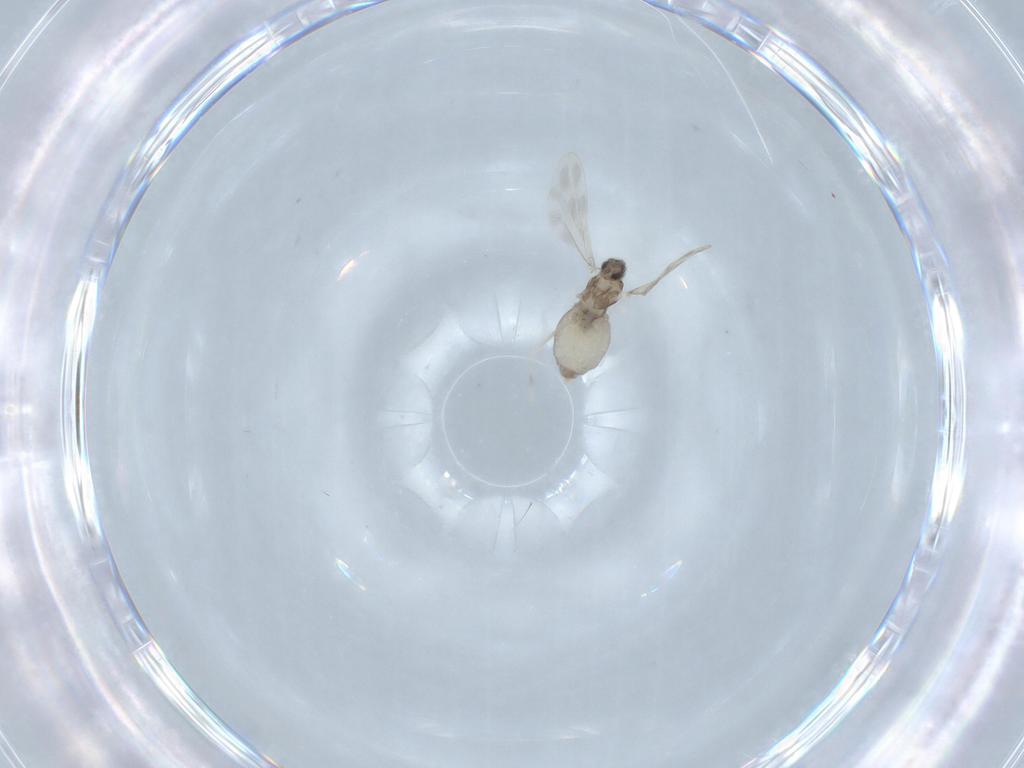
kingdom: Animalia
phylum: Arthropoda
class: Insecta
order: Diptera
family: Cecidomyiidae
